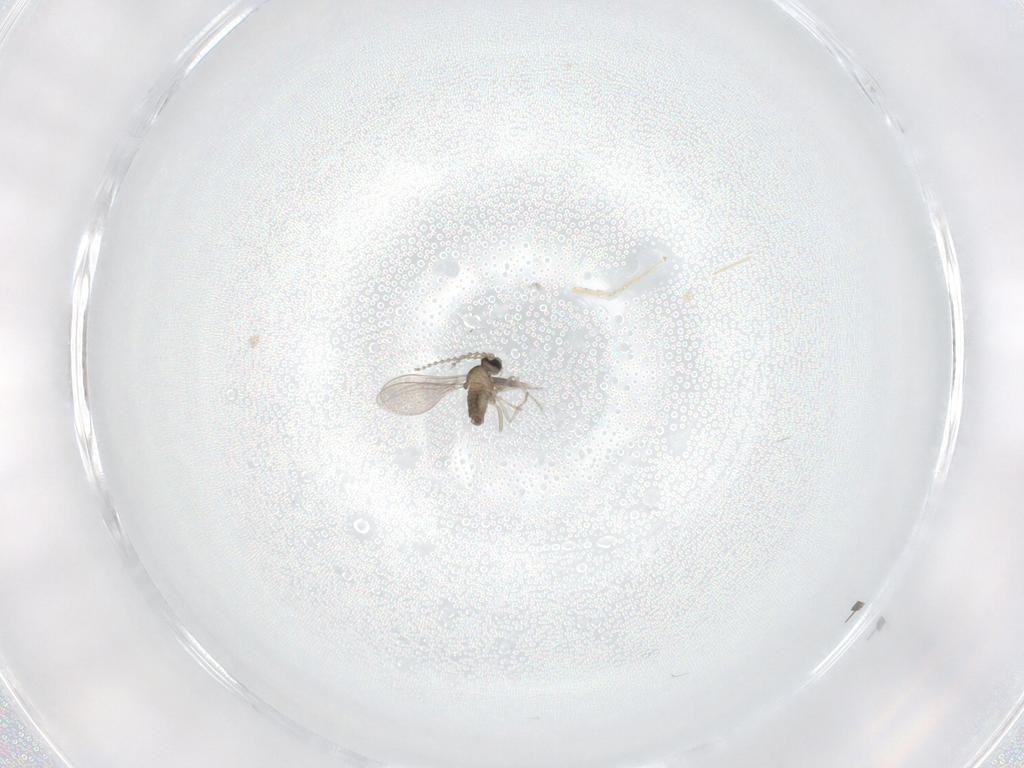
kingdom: Animalia
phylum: Arthropoda
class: Insecta
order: Diptera
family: Cecidomyiidae
